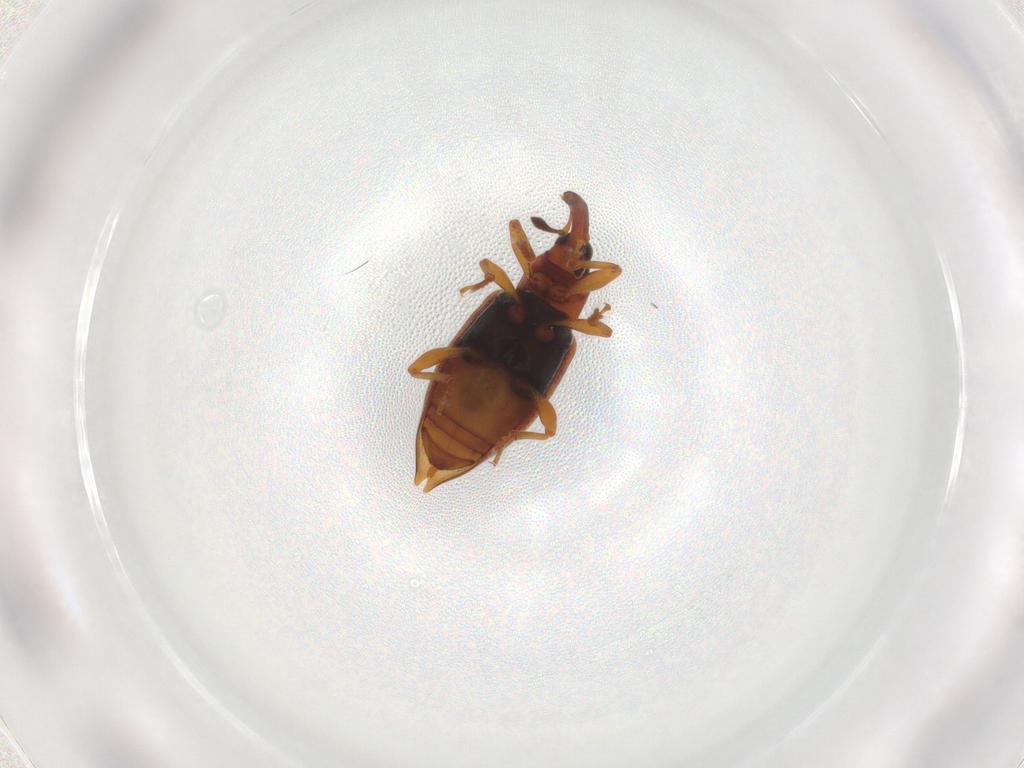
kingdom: Animalia
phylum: Arthropoda
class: Insecta
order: Coleoptera
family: Curculionidae
